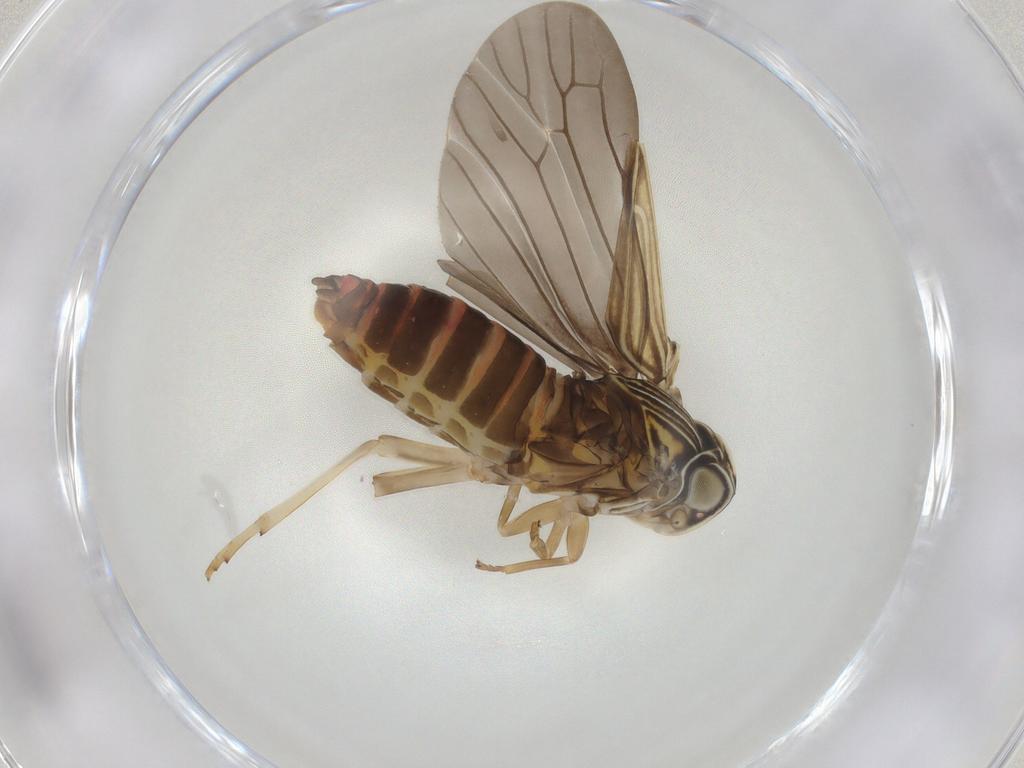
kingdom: Animalia
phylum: Arthropoda
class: Insecta
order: Hemiptera
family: Achilidae
